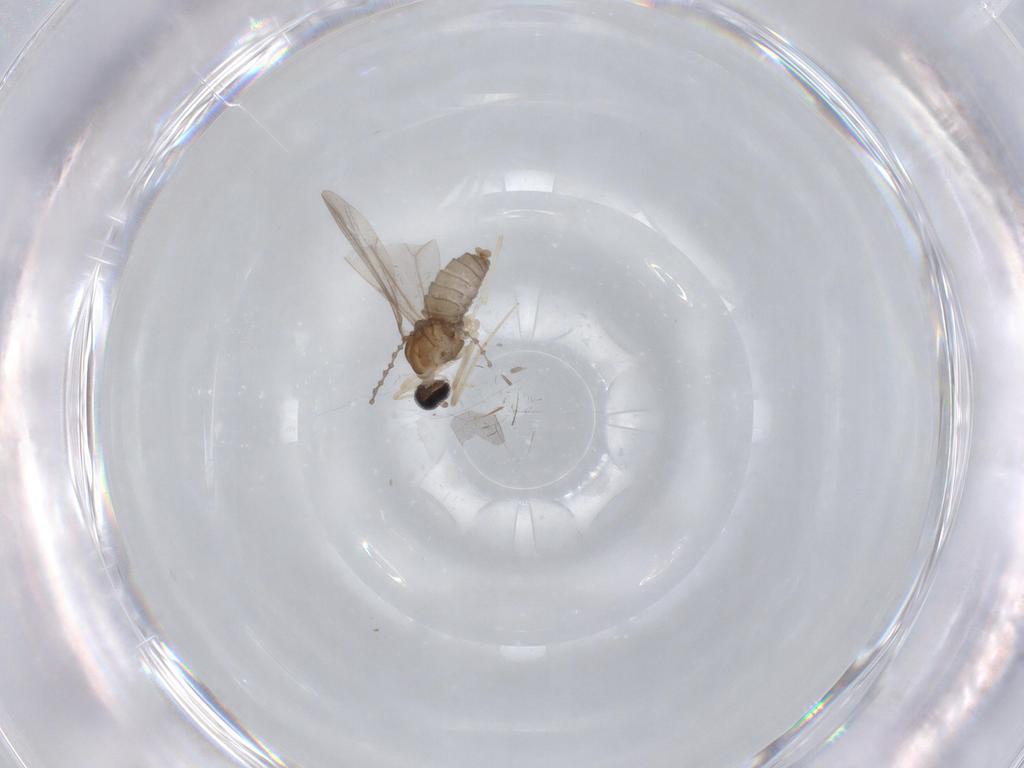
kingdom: Animalia
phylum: Arthropoda
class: Insecta
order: Diptera
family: Cecidomyiidae
